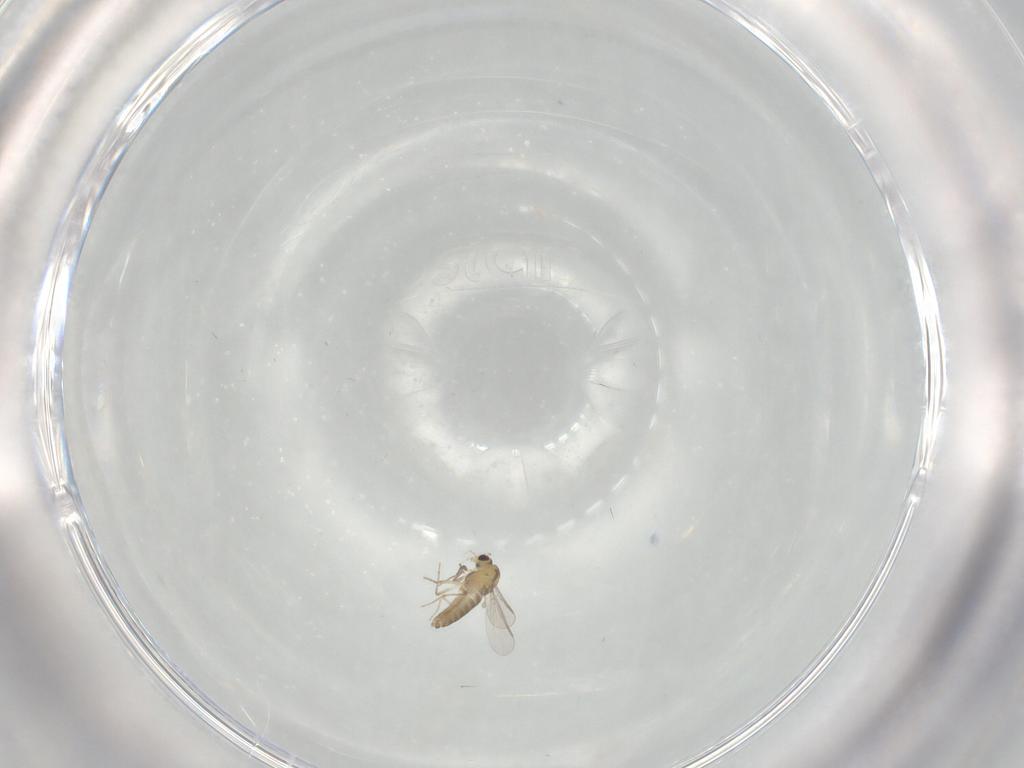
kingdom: Animalia
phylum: Arthropoda
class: Insecta
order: Diptera
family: Chironomidae
